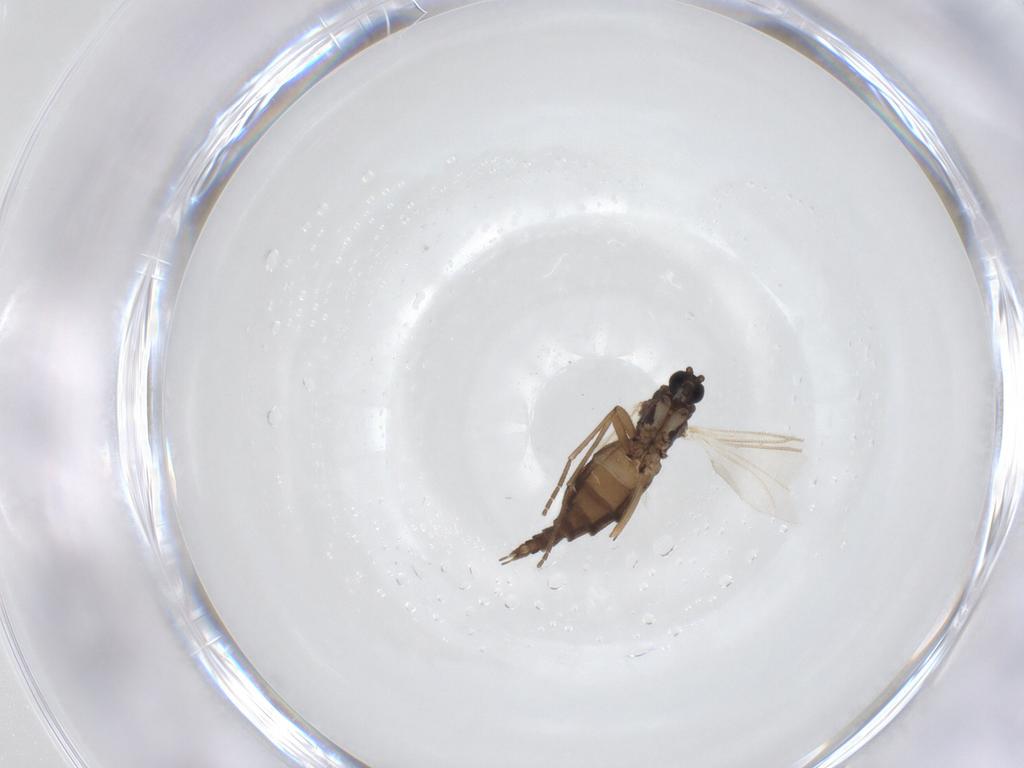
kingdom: Animalia
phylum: Arthropoda
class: Insecta
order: Diptera
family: Sciaridae
